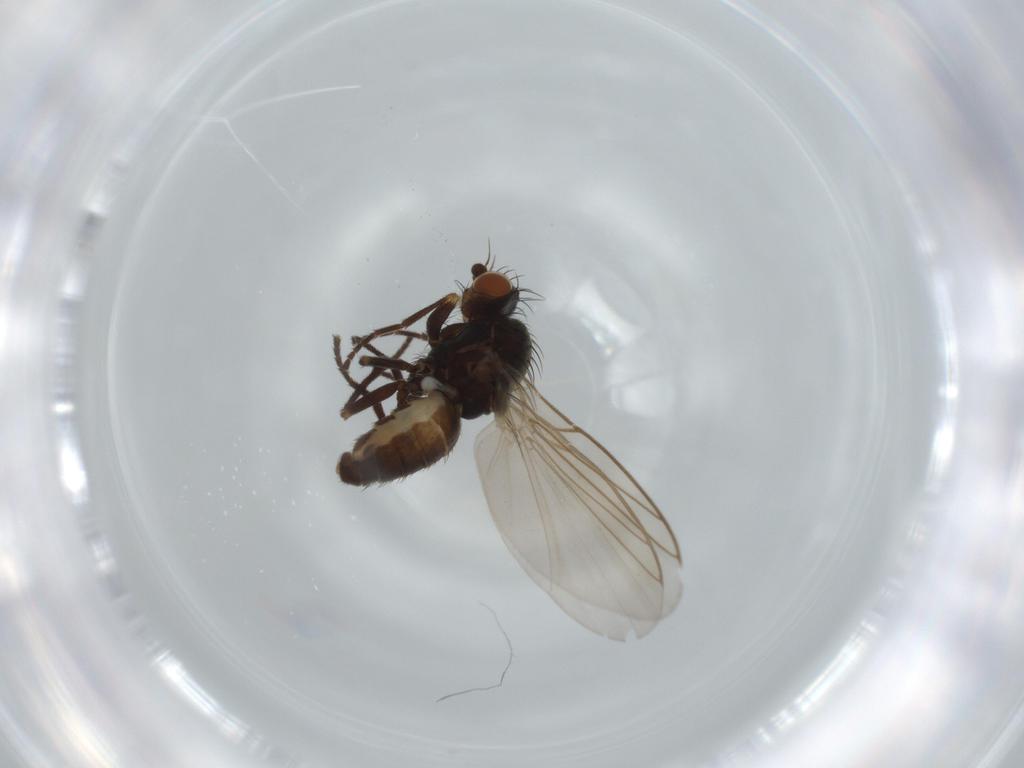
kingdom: Animalia
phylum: Arthropoda
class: Insecta
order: Diptera
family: Agromyzidae
